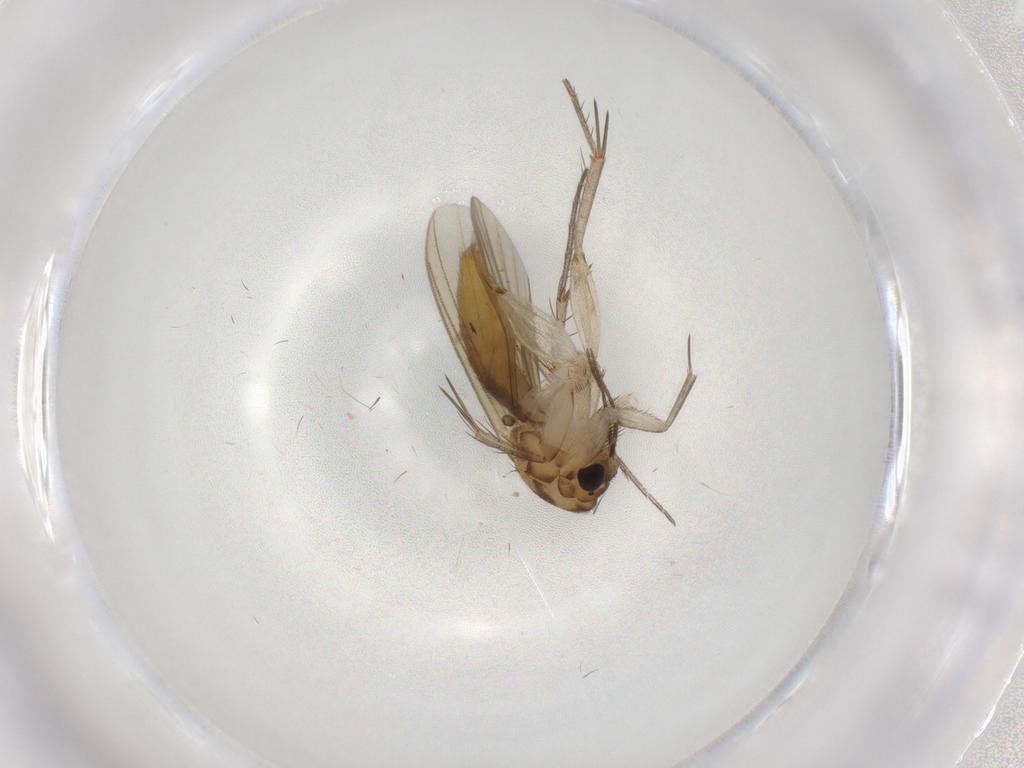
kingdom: Animalia
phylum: Arthropoda
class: Insecta
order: Diptera
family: Mycetophilidae
